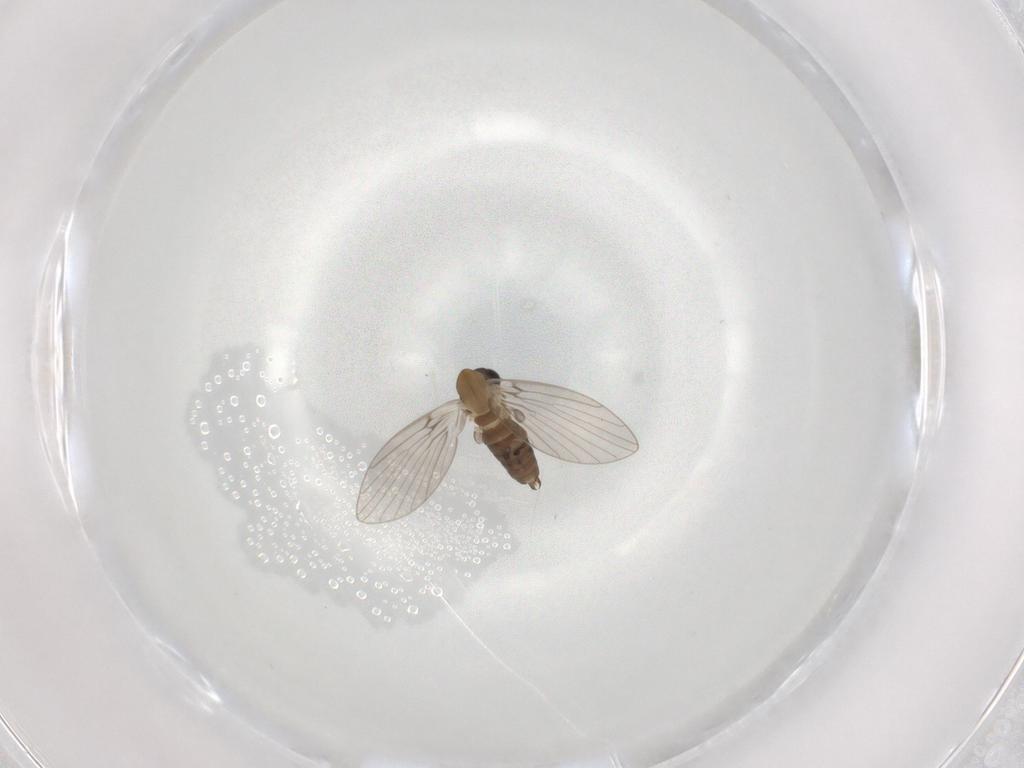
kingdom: Animalia
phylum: Arthropoda
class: Insecta
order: Diptera
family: Psychodidae
